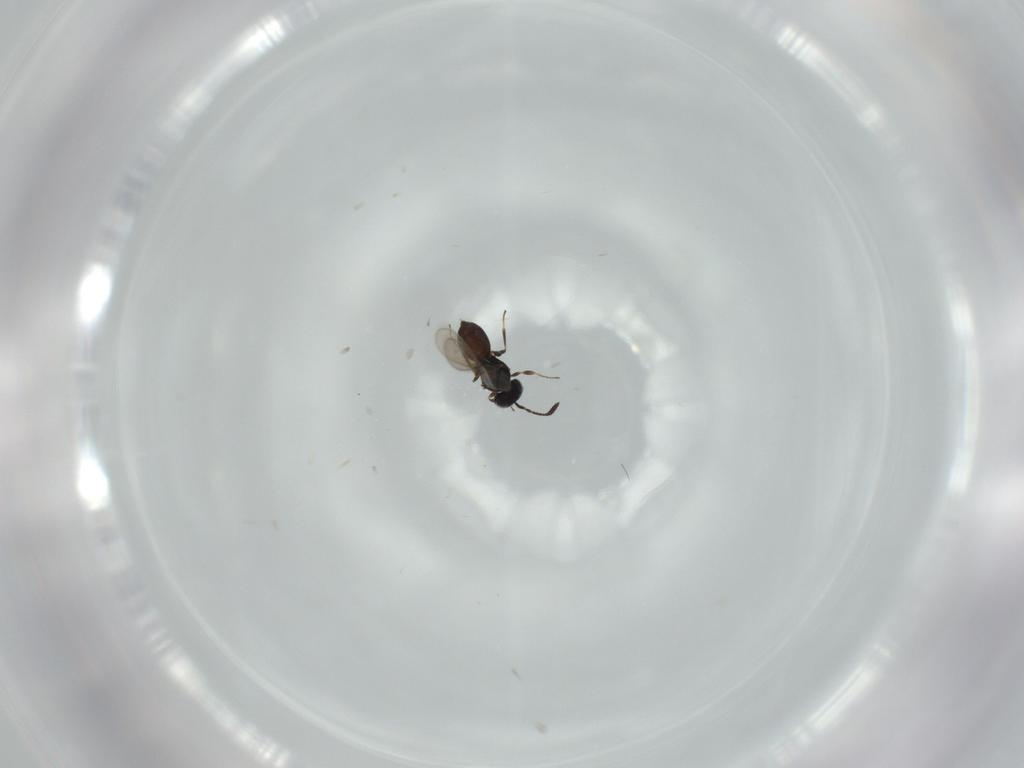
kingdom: Animalia
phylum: Arthropoda
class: Insecta
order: Hymenoptera
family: Scelionidae
